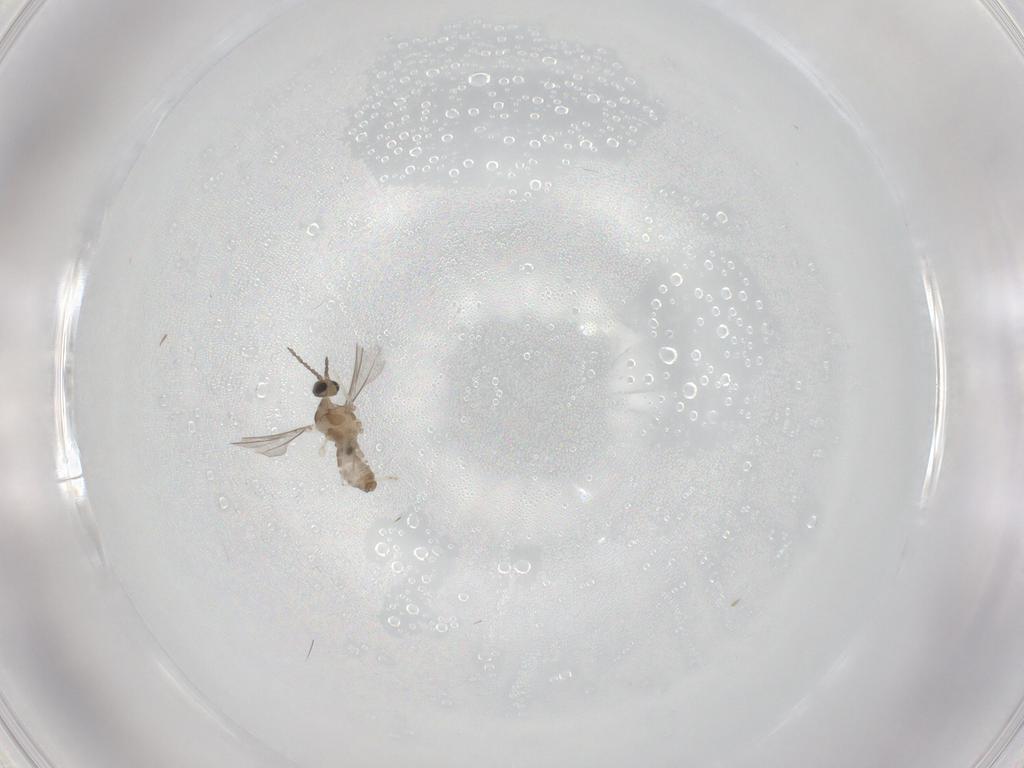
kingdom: Animalia
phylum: Arthropoda
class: Insecta
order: Diptera
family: Cecidomyiidae
